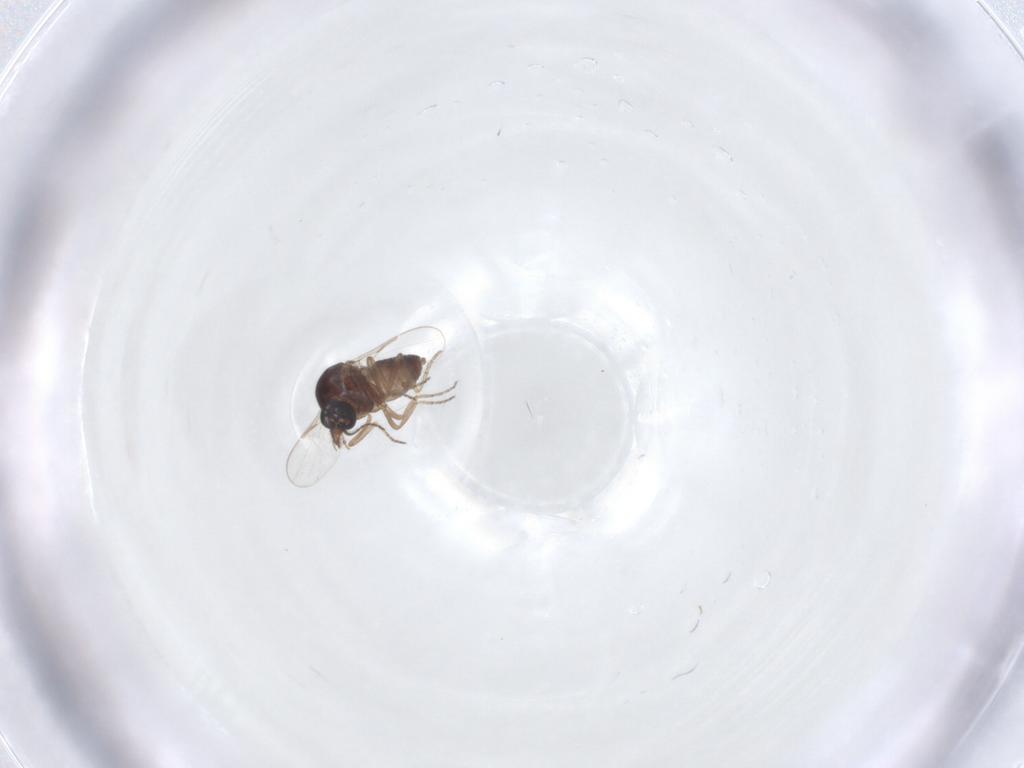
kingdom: Animalia
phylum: Arthropoda
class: Insecta
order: Diptera
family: Ceratopogonidae
